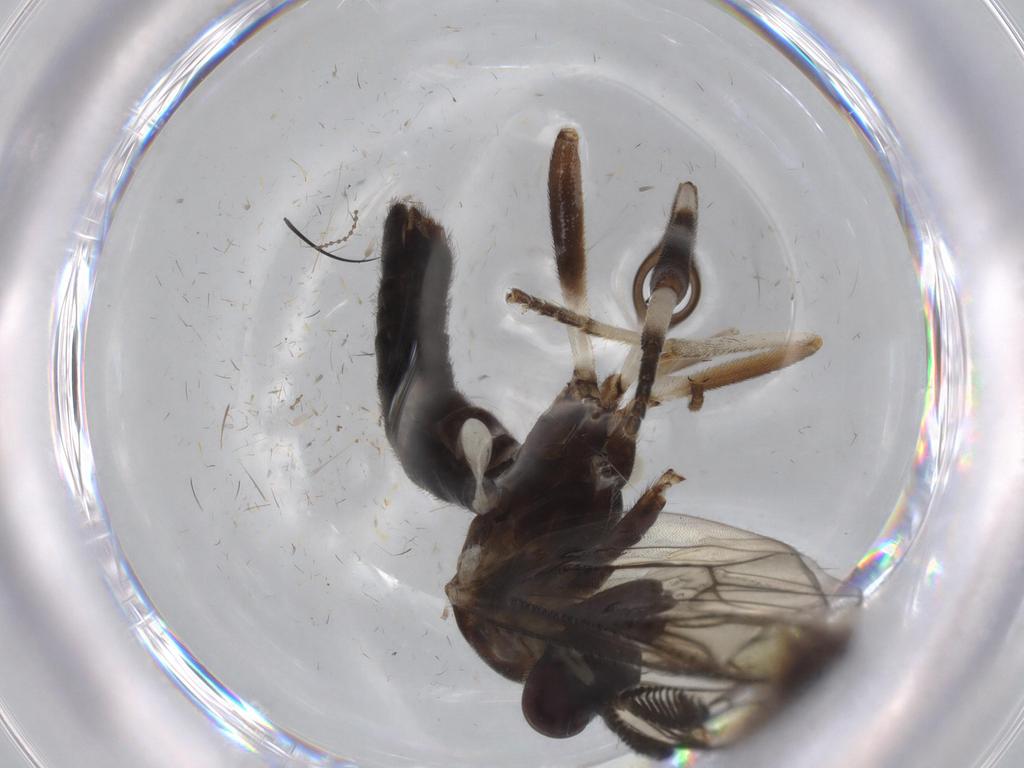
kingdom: Animalia
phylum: Arthropoda
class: Insecta
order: Diptera
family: Xylophagidae
